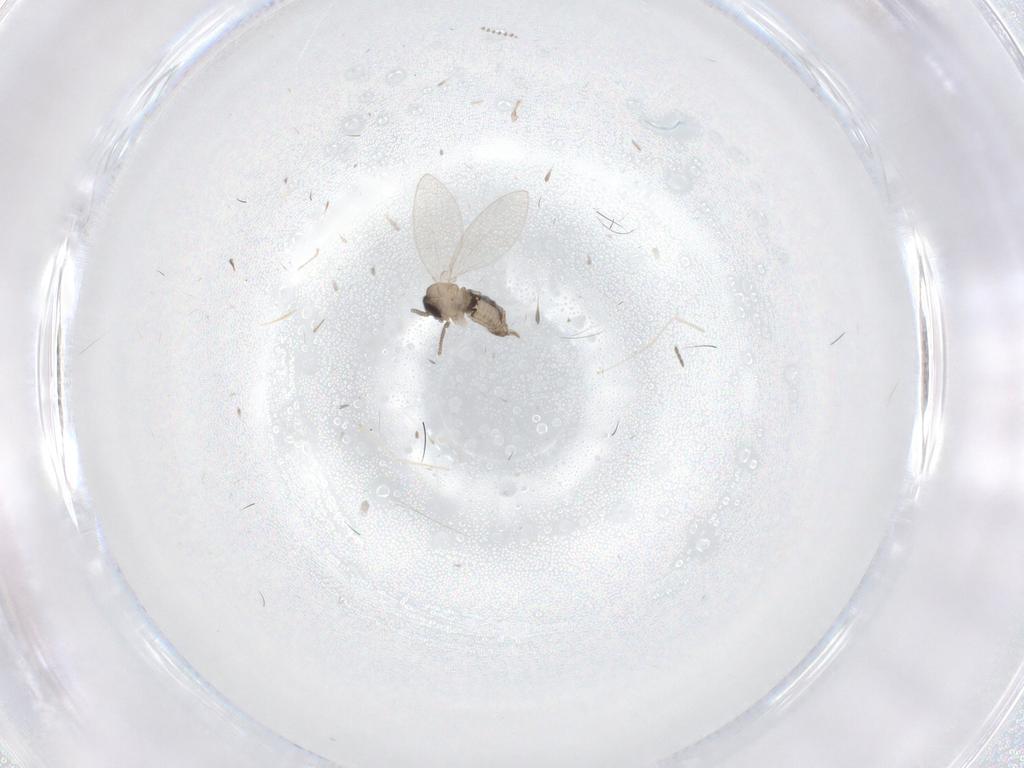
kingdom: Animalia
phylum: Arthropoda
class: Insecta
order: Diptera
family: Psychodidae
